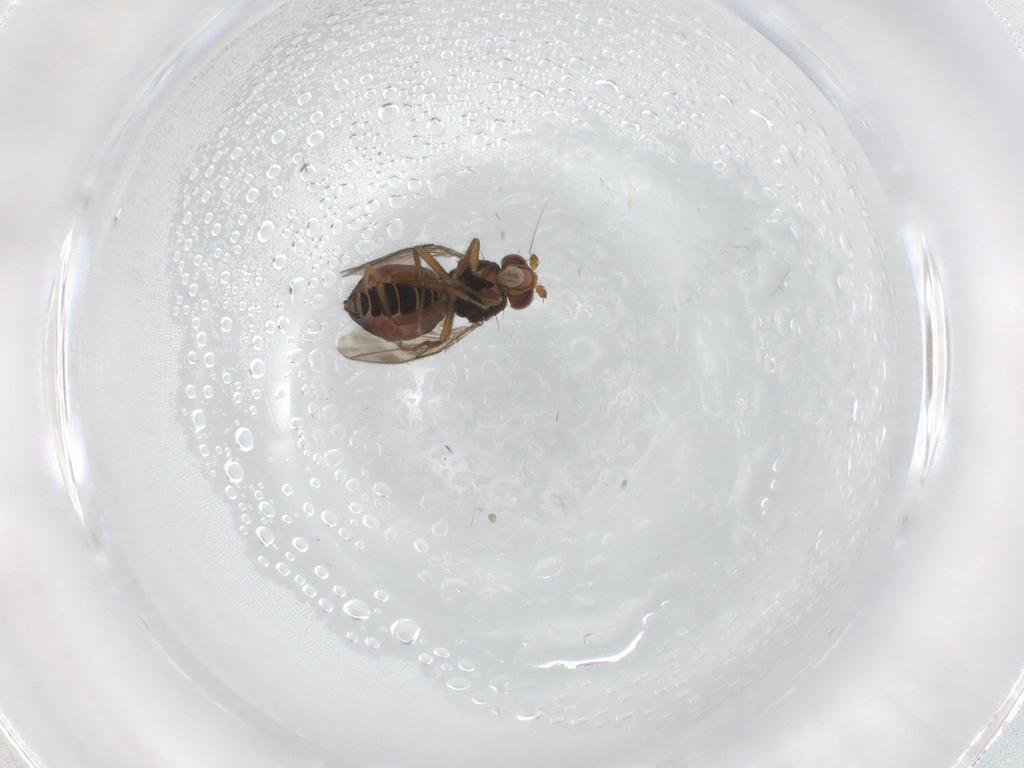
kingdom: Animalia
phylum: Arthropoda
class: Insecta
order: Diptera
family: Sphaeroceridae
